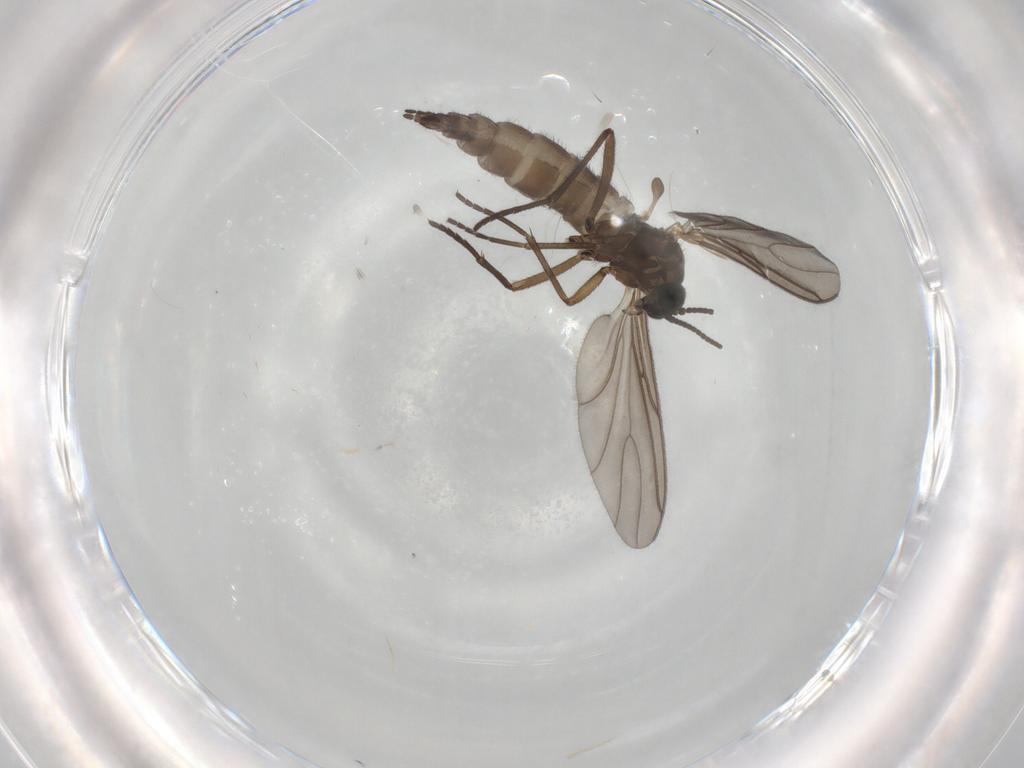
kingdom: Animalia
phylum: Arthropoda
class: Insecta
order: Diptera
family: Sciaridae
